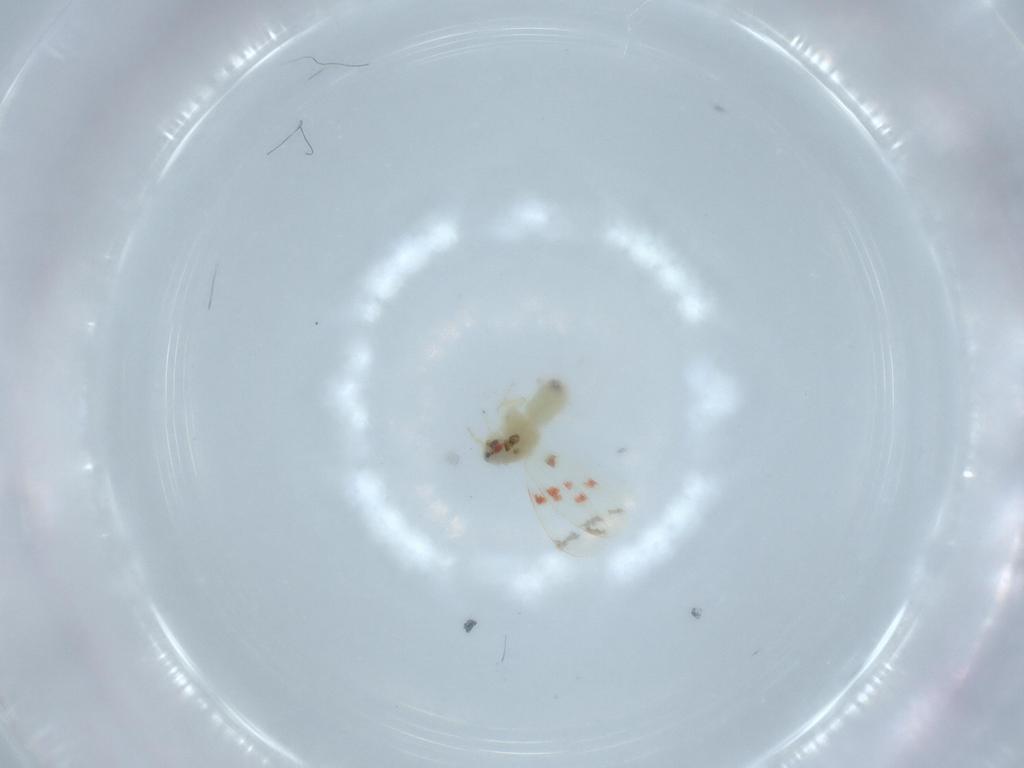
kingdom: Animalia
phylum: Arthropoda
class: Insecta
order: Hemiptera
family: Aleyrodidae
